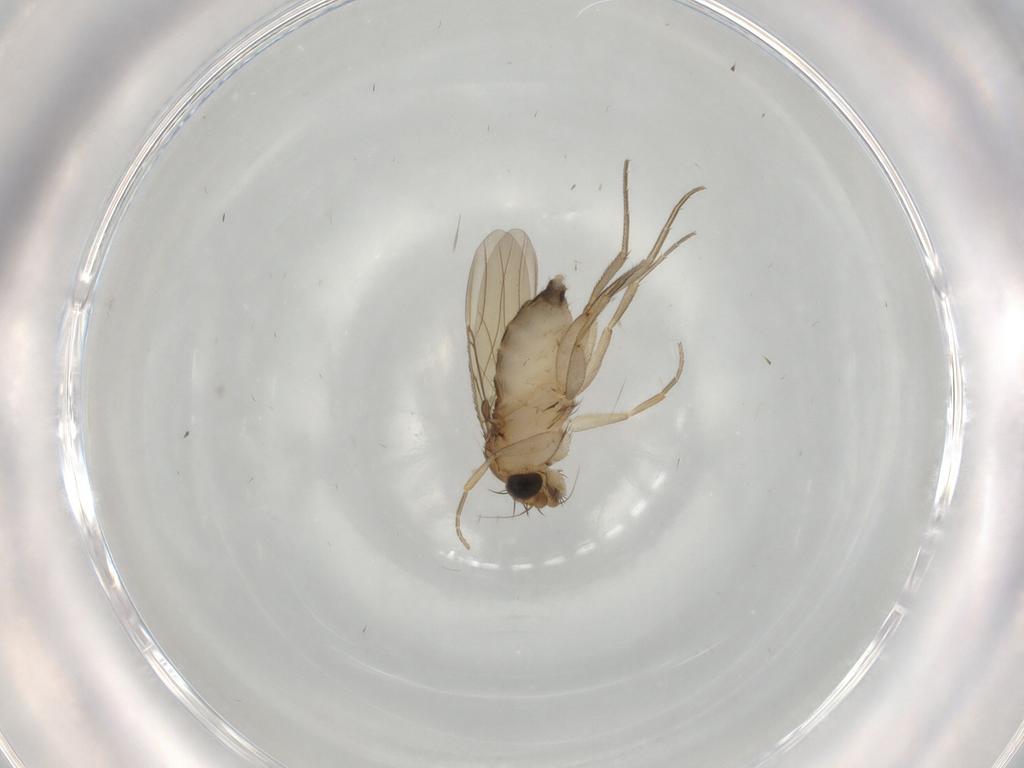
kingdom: Animalia
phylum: Arthropoda
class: Insecta
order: Diptera
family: Phoridae
